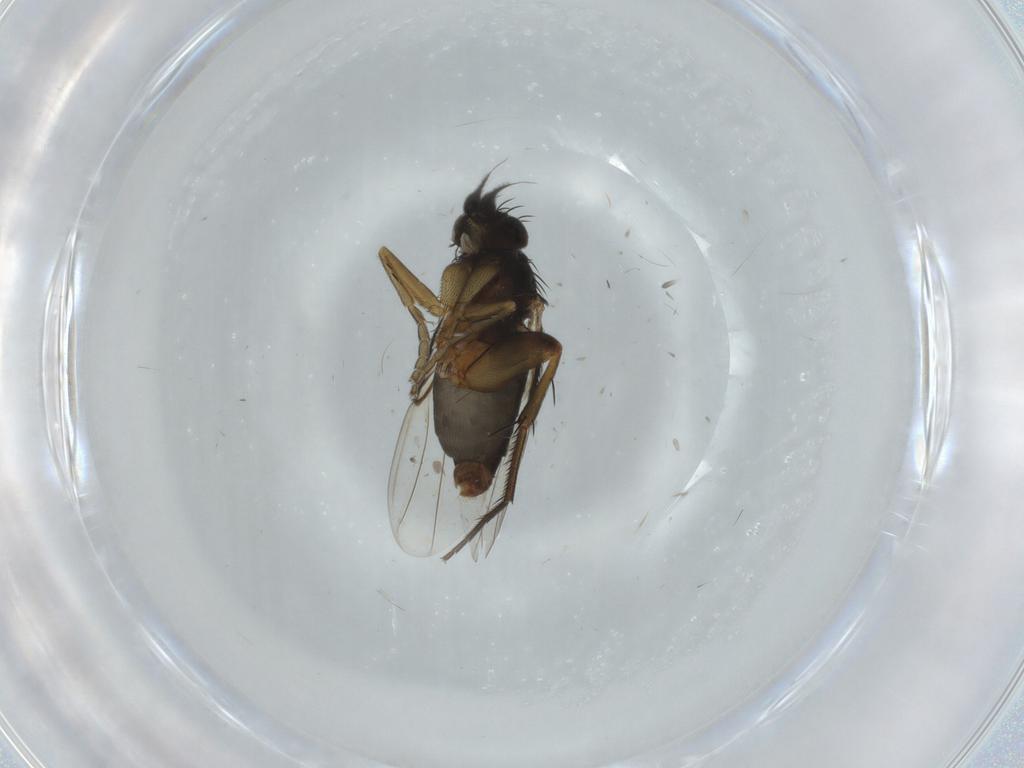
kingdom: Animalia
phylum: Arthropoda
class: Insecta
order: Diptera
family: Phoridae
